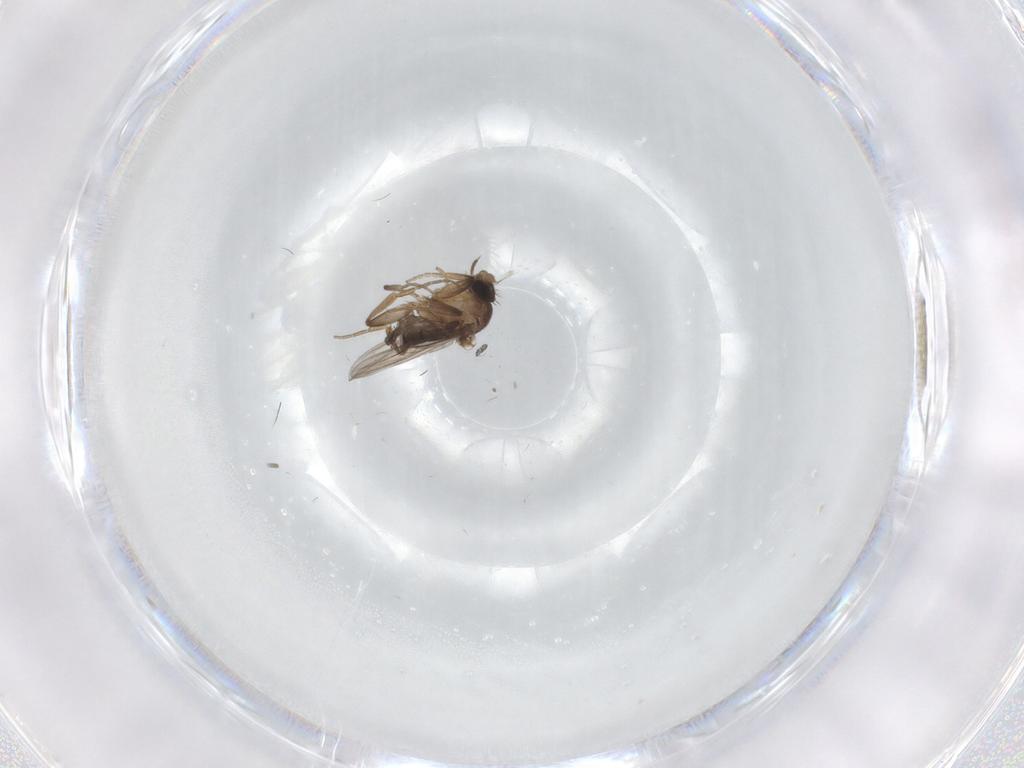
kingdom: Animalia
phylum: Arthropoda
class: Insecta
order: Diptera
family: Phoridae
